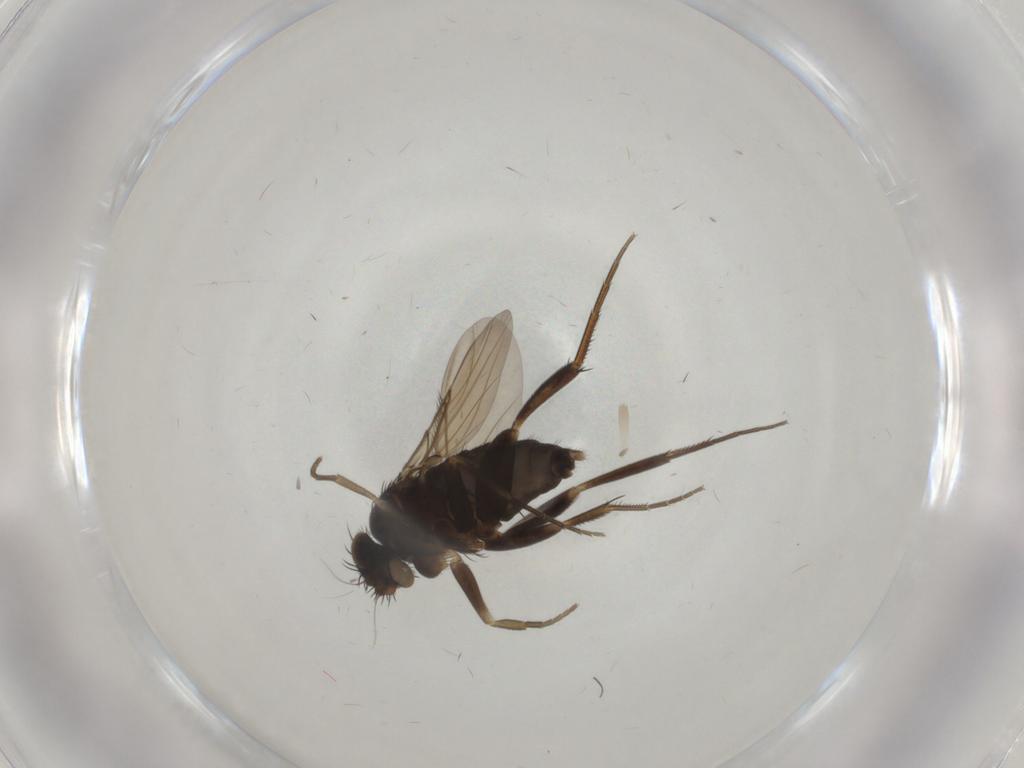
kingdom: Animalia
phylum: Arthropoda
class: Insecta
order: Diptera
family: Phoridae
